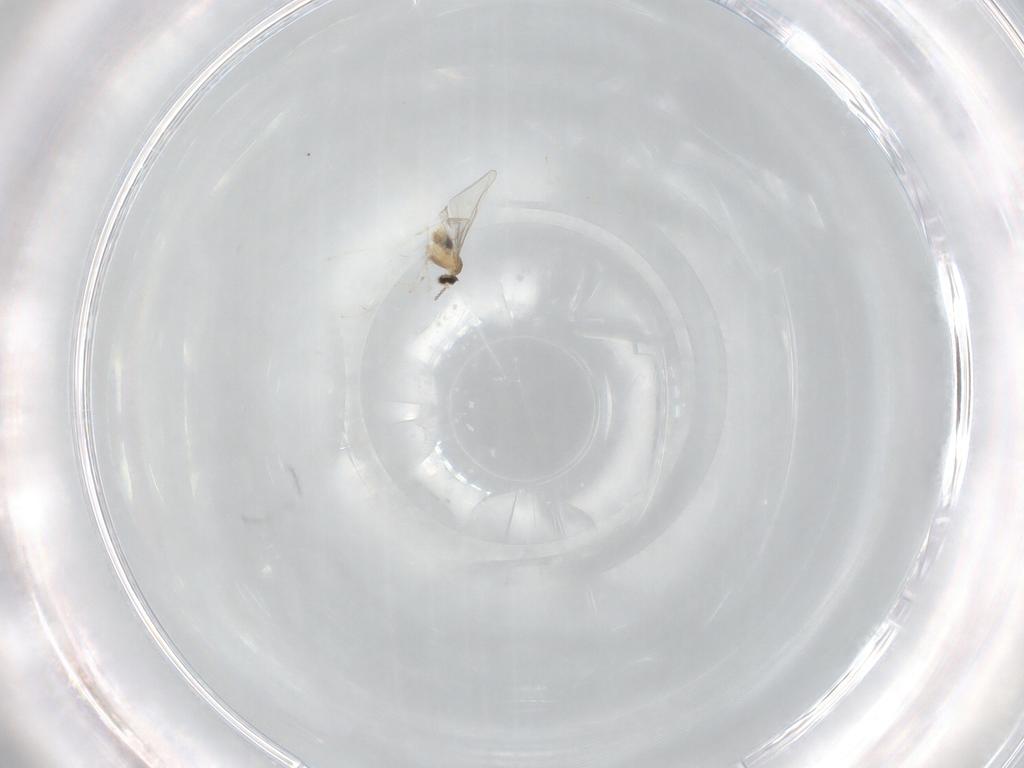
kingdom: Animalia
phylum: Arthropoda
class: Insecta
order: Diptera
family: Cecidomyiidae
